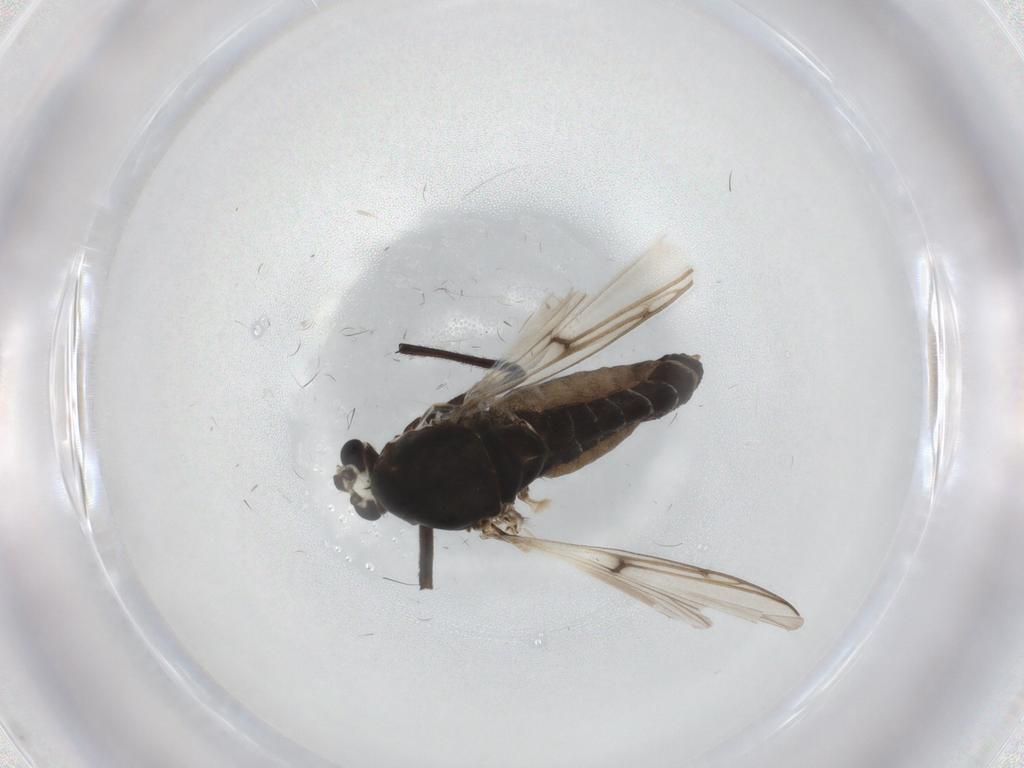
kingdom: Animalia
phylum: Arthropoda
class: Insecta
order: Diptera
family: Chironomidae
